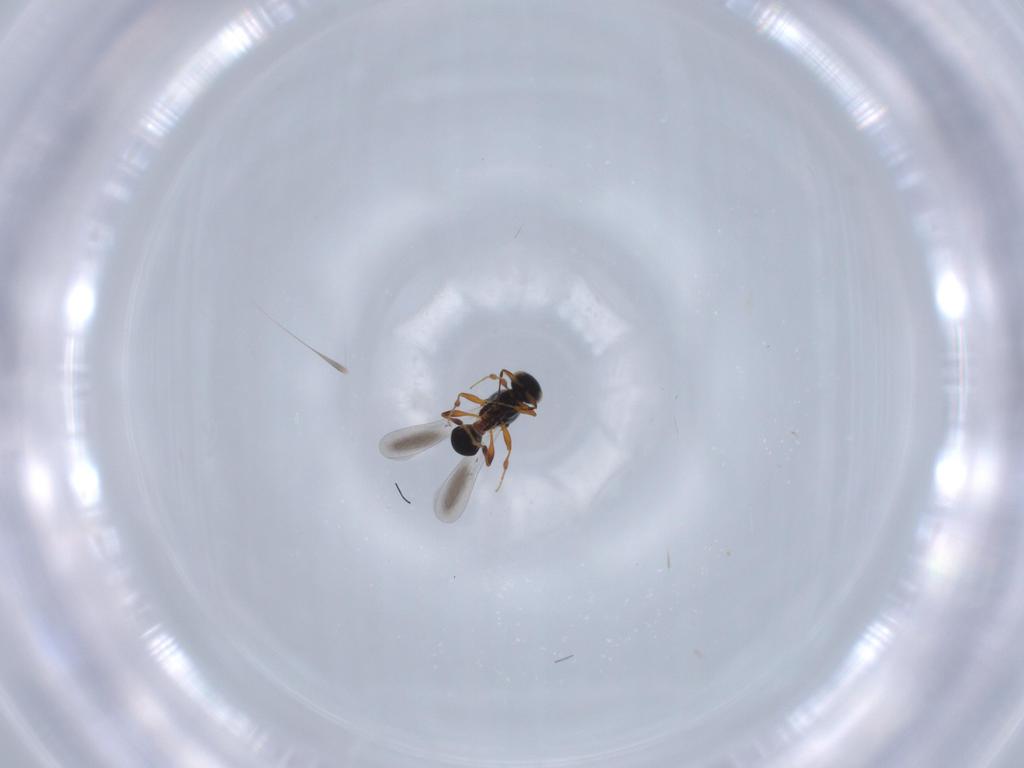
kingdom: Animalia
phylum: Arthropoda
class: Insecta
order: Hymenoptera
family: Platygastridae
